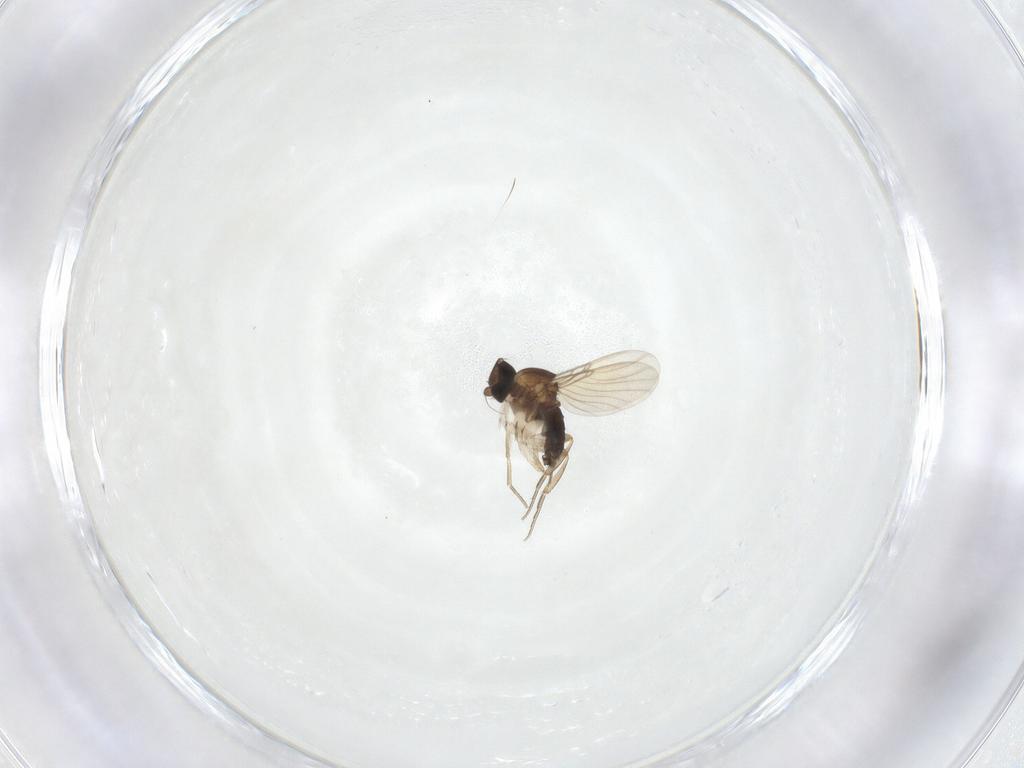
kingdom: Animalia
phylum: Arthropoda
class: Insecta
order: Diptera
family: Phoridae
